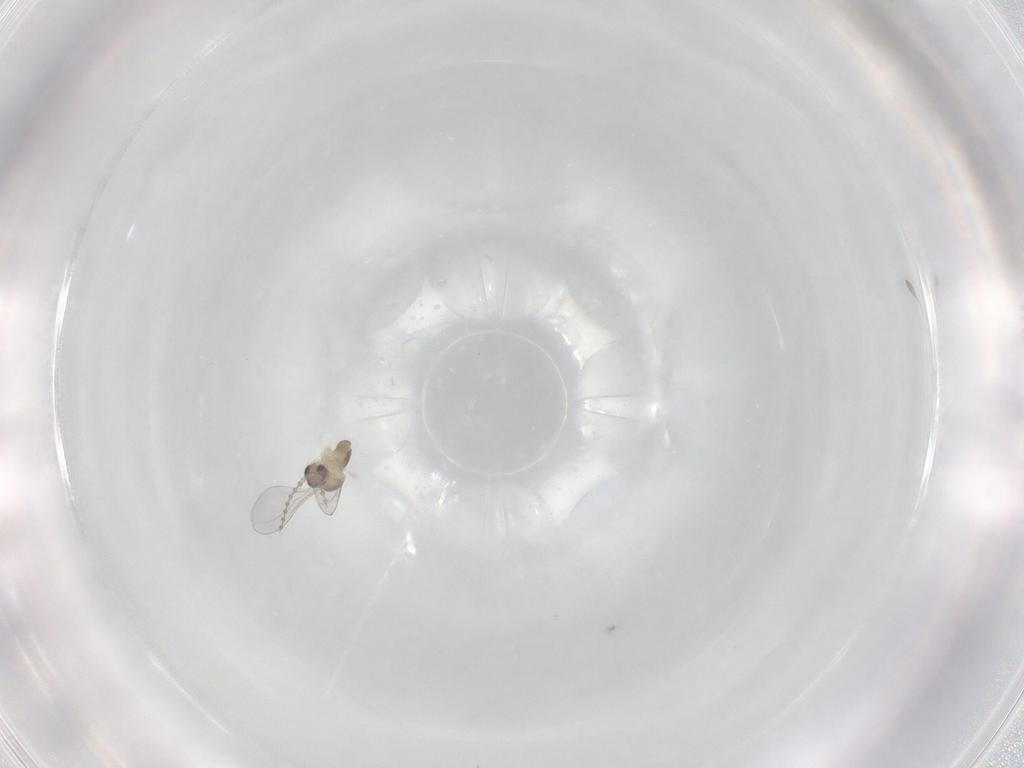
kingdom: Animalia
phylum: Arthropoda
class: Insecta
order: Diptera
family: Cecidomyiidae
